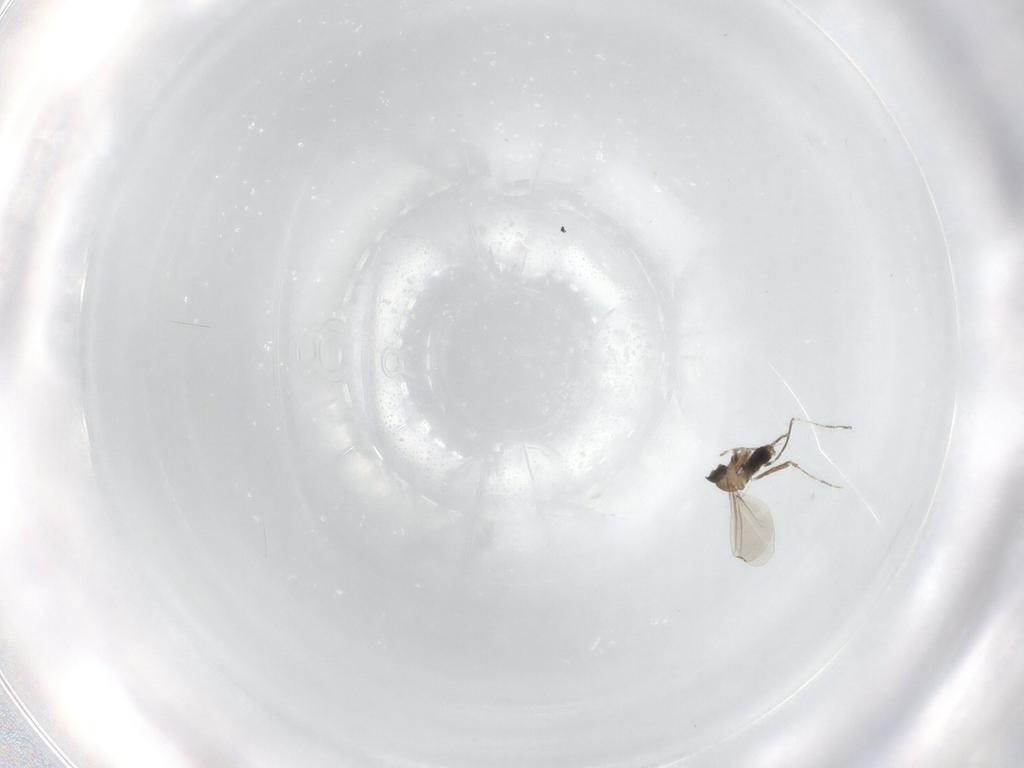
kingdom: Animalia
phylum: Arthropoda
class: Insecta
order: Diptera
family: Cecidomyiidae
